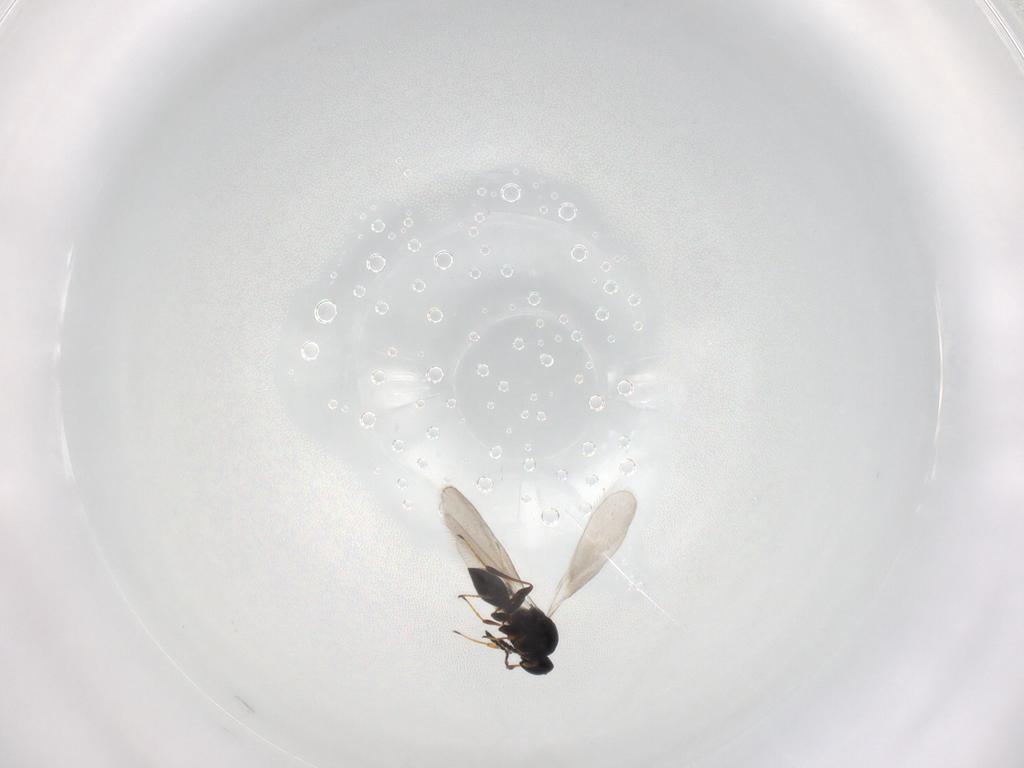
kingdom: Animalia
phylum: Arthropoda
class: Insecta
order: Hymenoptera
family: Platygastridae
